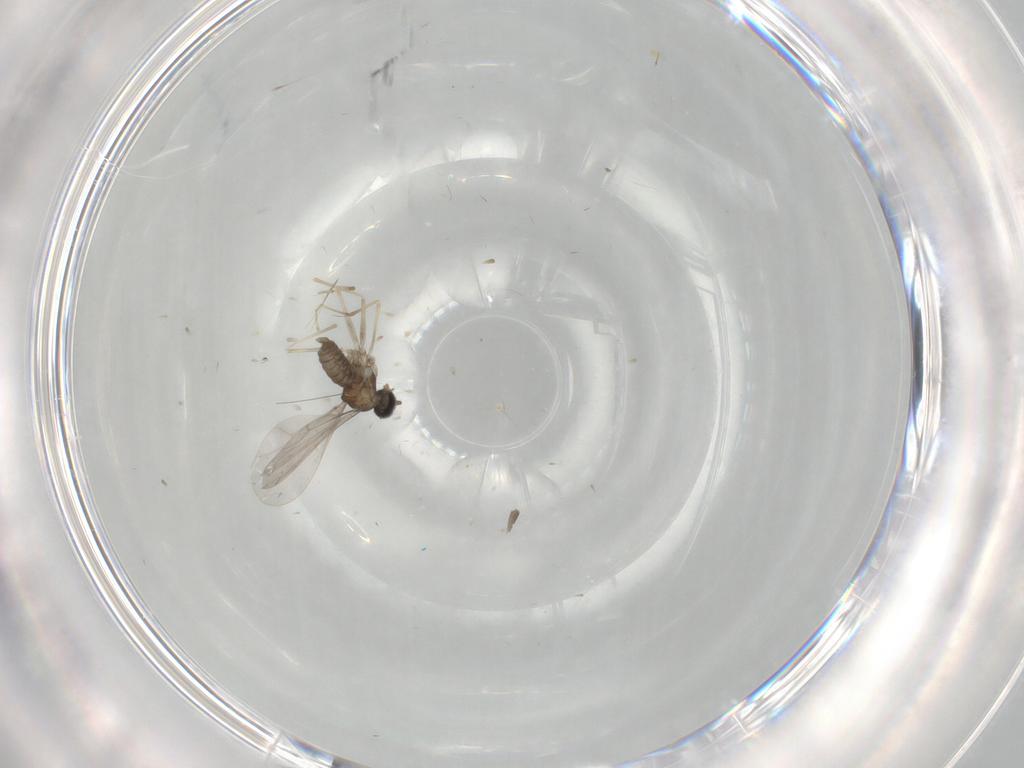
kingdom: Animalia
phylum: Arthropoda
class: Insecta
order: Diptera
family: Cecidomyiidae
